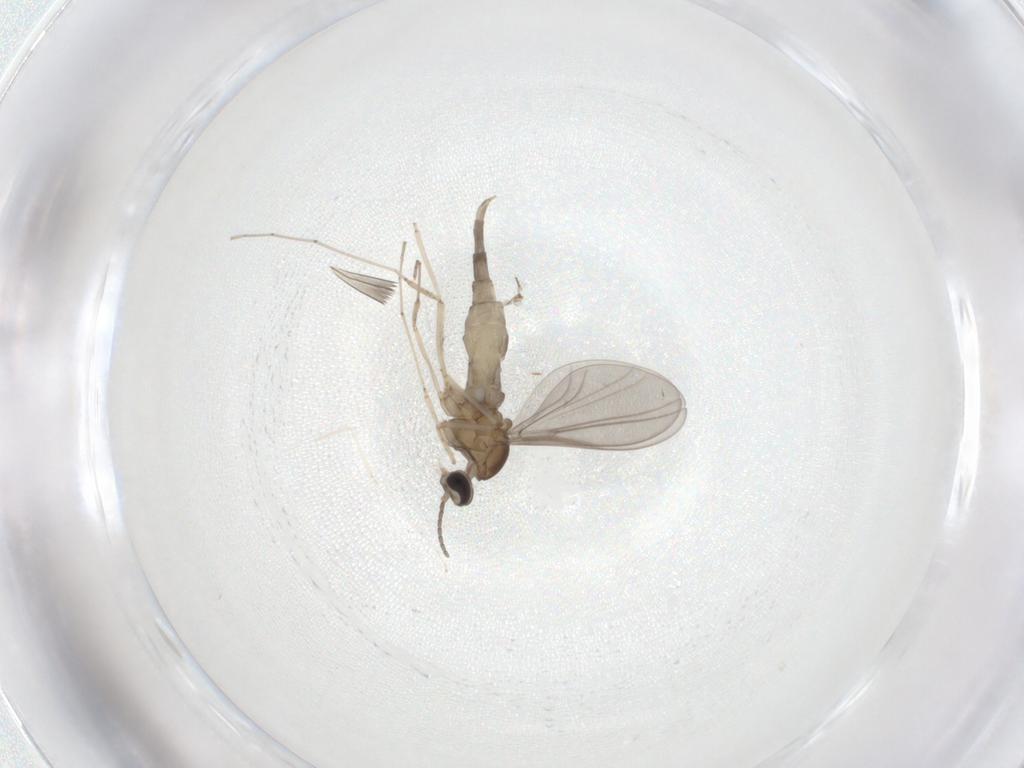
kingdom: Animalia
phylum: Arthropoda
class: Insecta
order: Diptera
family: Cecidomyiidae
